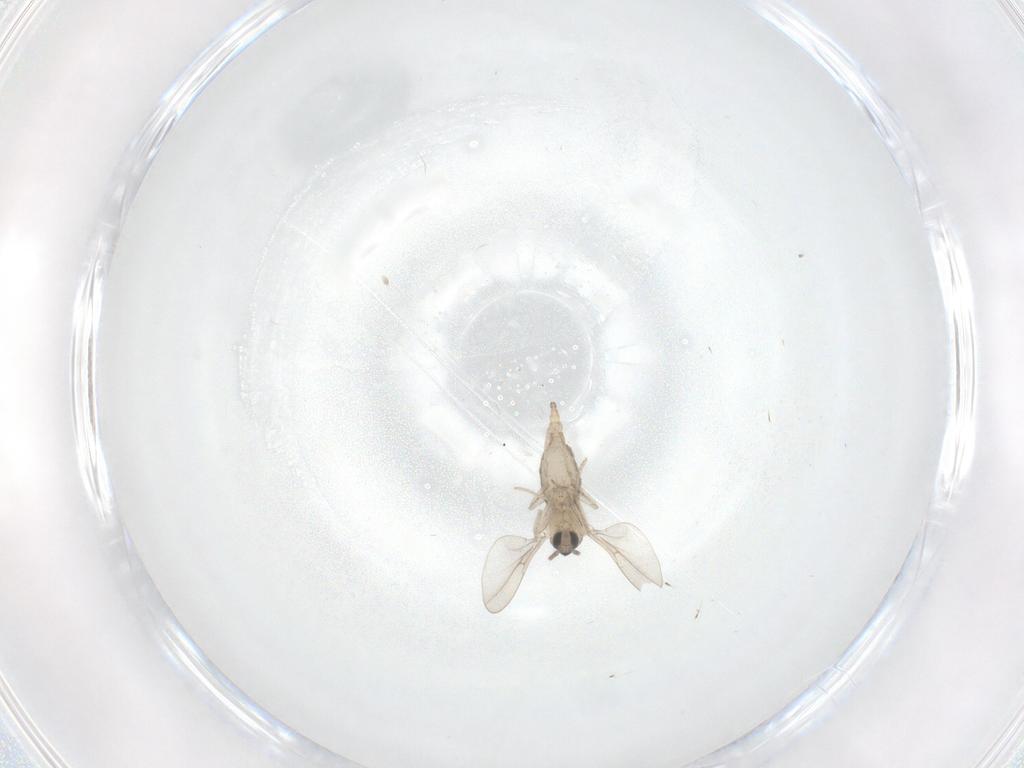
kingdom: Animalia
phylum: Arthropoda
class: Insecta
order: Diptera
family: Cecidomyiidae
